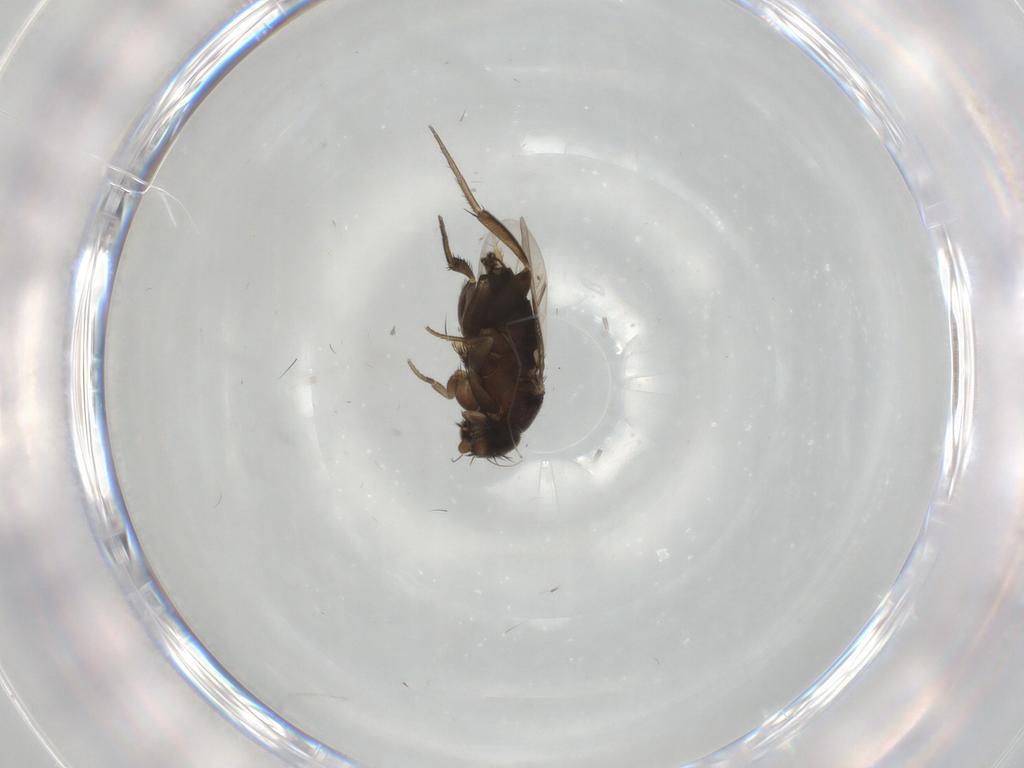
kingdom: Animalia
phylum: Arthropoda
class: Insecta
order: Diptera
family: Phoridae
